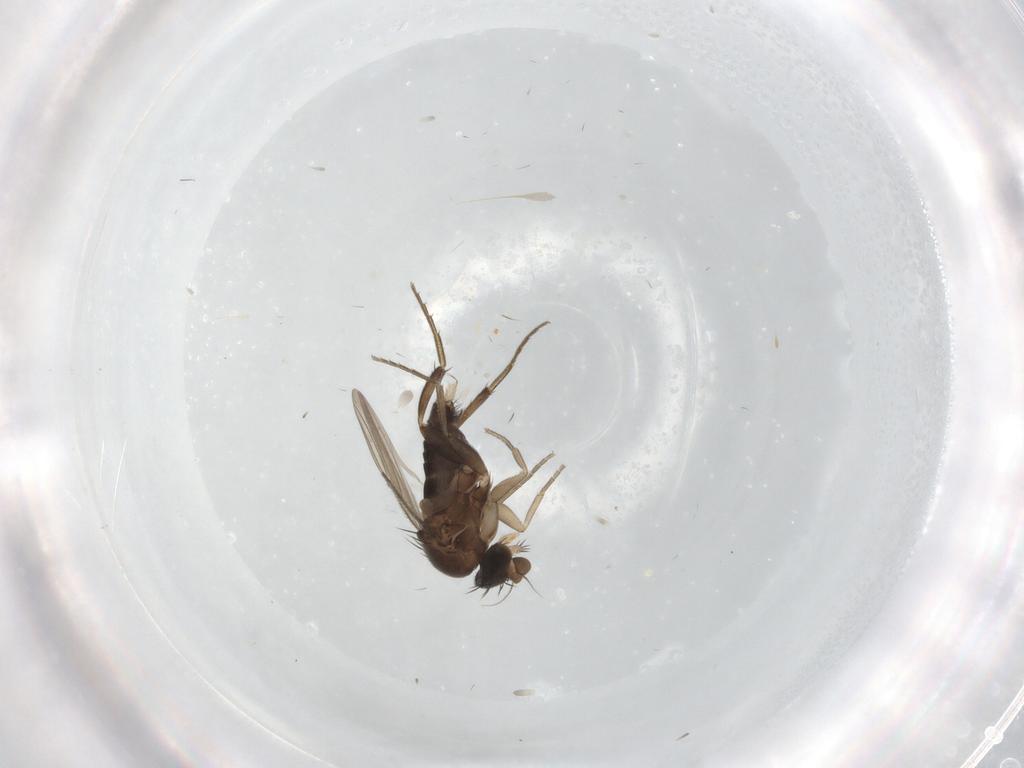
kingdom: Animalia
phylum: Arthropoda
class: Insecta
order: Diptera
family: Phoridae
